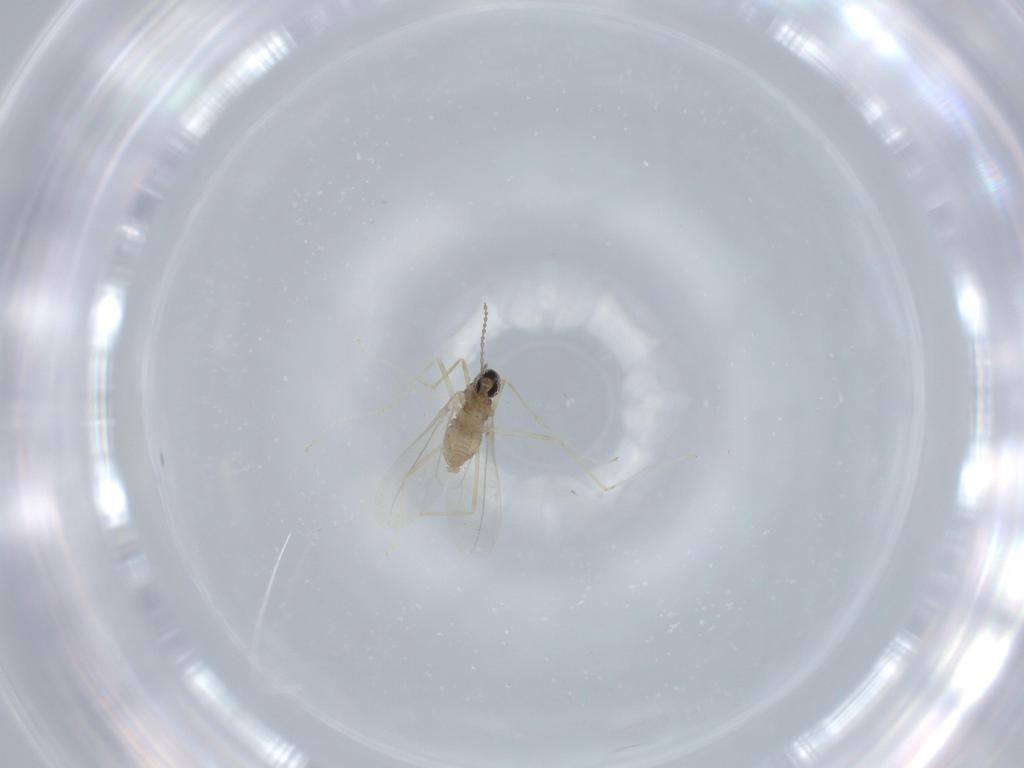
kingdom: Animalia
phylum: Arthropoda
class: Insecta
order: Diptera
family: Cecidomyiidae
